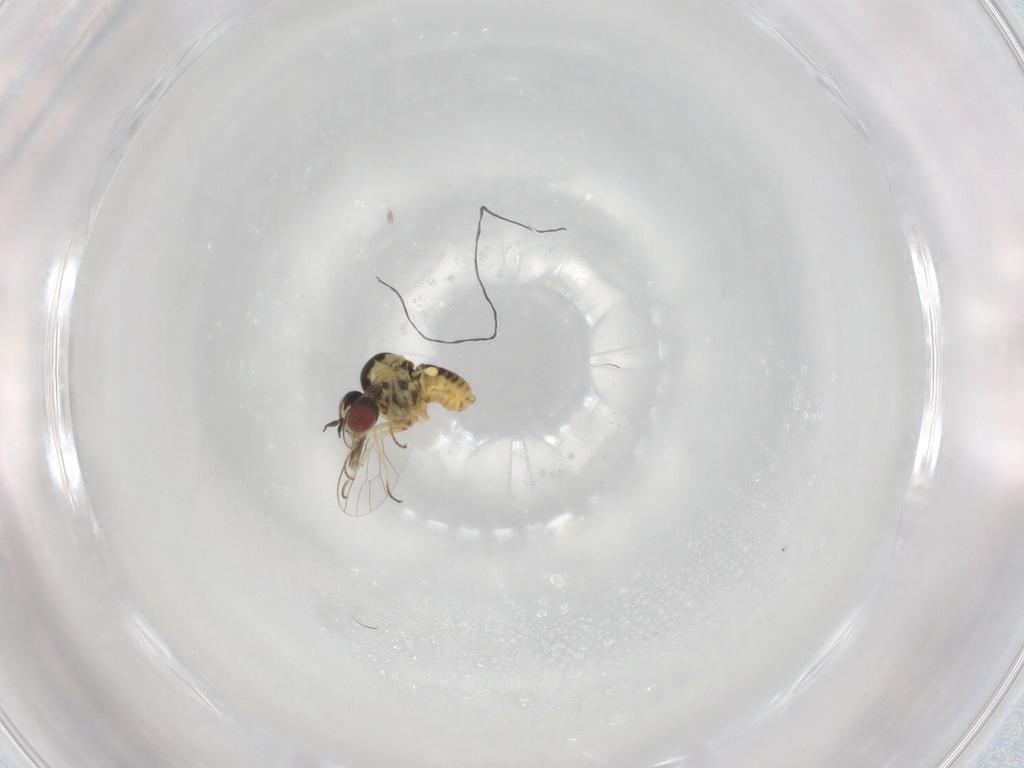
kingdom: Animalia
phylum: Arthropoda
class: Insecta
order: Diptera
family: Bombyliidae
